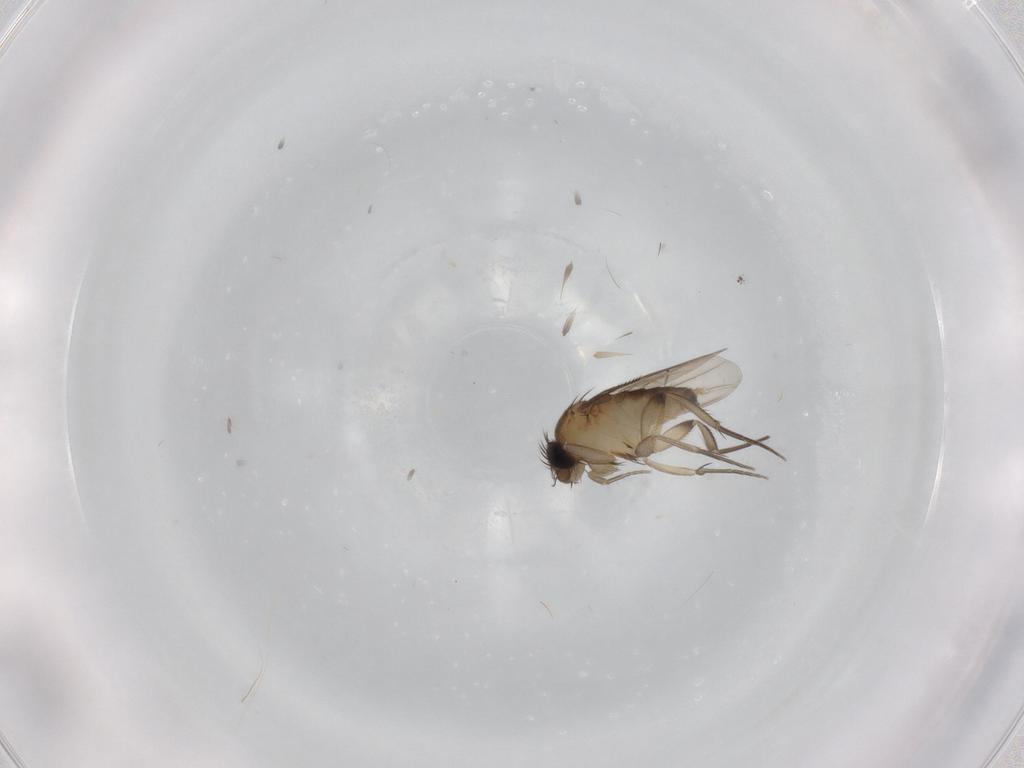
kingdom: Animalia
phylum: Arthropoda
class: Insecta
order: Diptera
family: Phoridae
